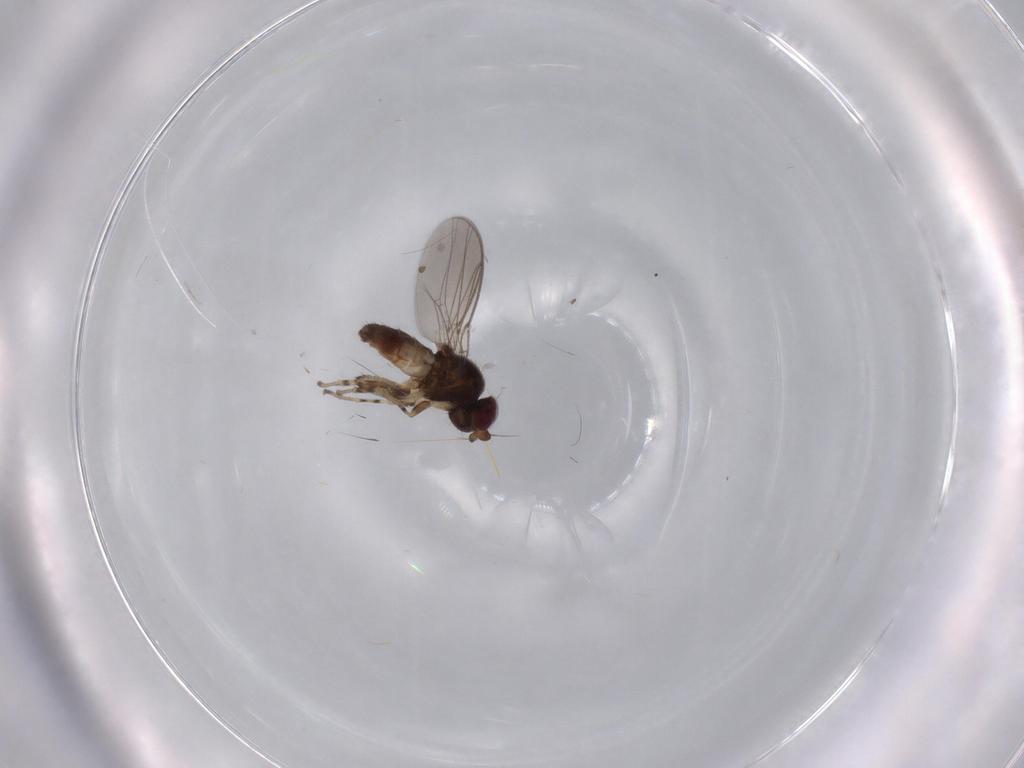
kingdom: Animalia
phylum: Arthropoda
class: Insecta
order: Diptera
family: Chloropidae
